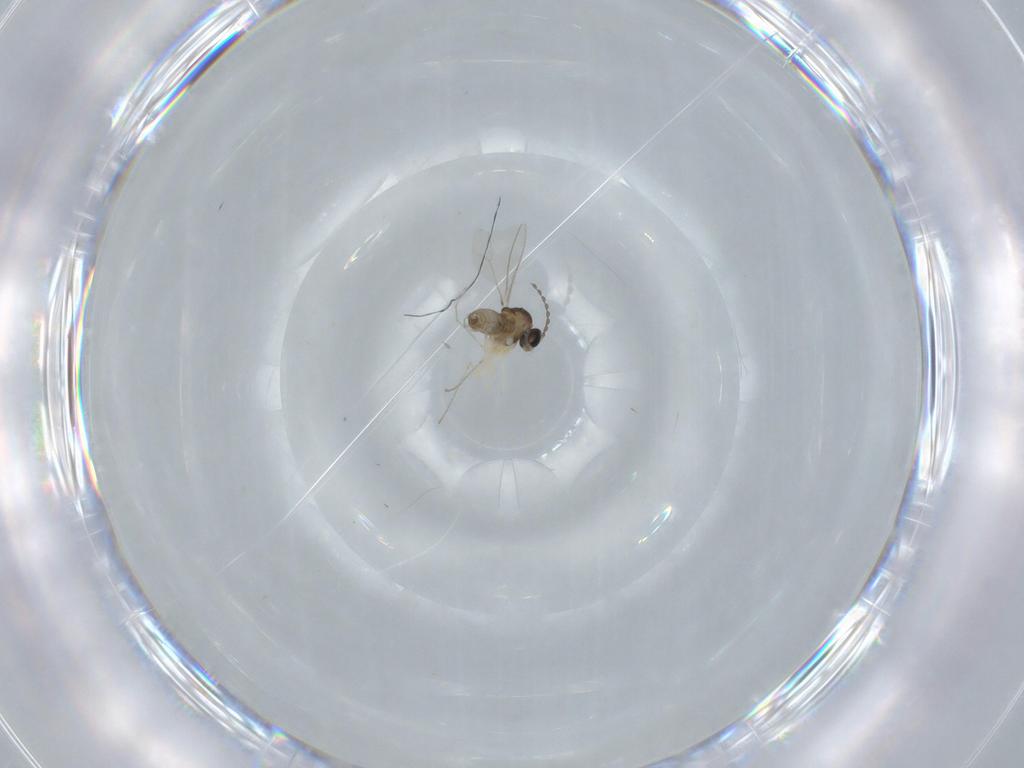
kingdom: Animalia
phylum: Arthropoda
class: Insecta
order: Diptera
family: Cecidomyiidae
